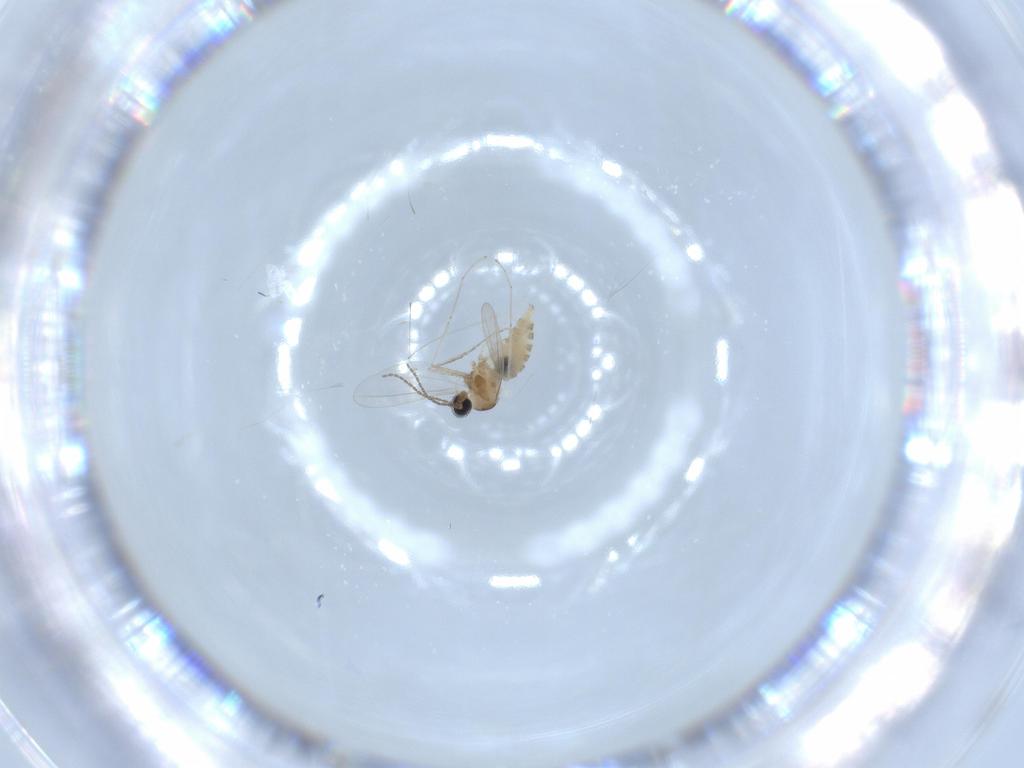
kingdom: Animalia
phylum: Arthropoda
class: Insecta
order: Diptera
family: Cecidomyiidae
